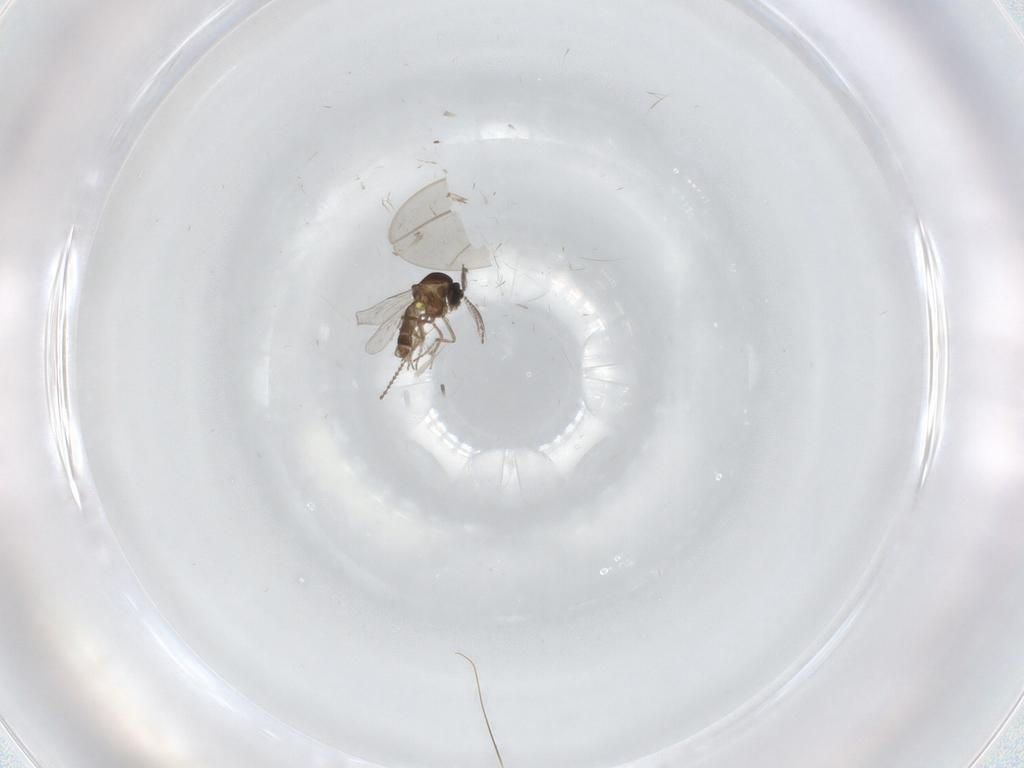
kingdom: Animalia
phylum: Arthropoda
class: Insecta
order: Diptera
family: Ceratopogonidae
